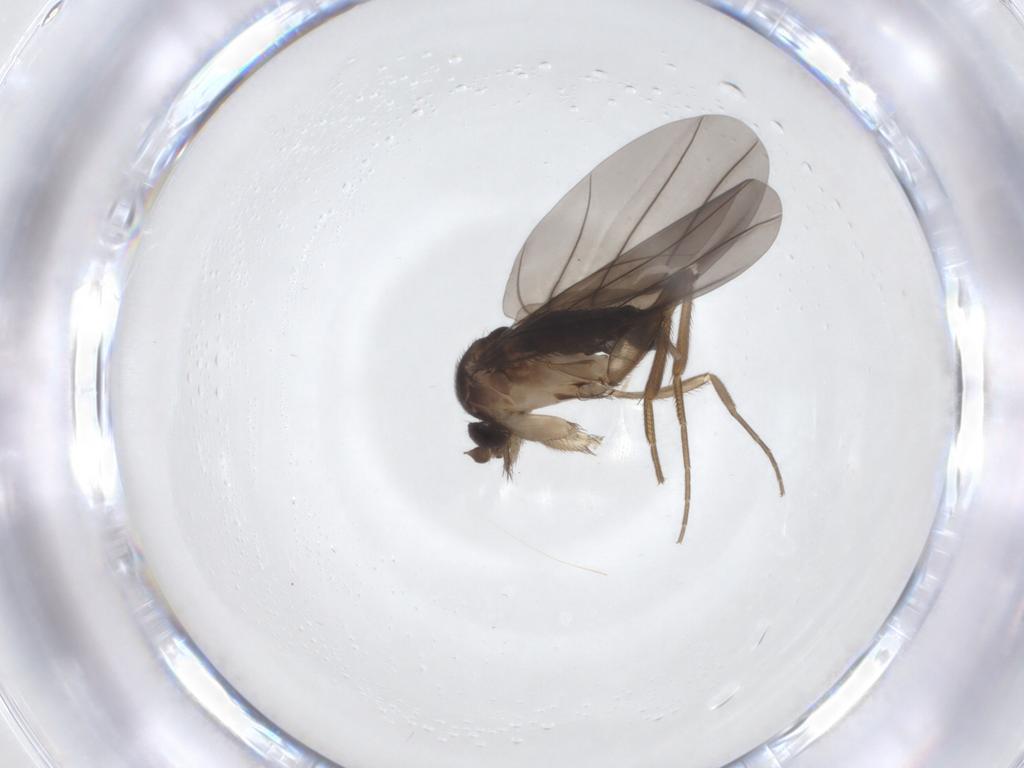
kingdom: Animalia
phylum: Arthropoda
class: Insecta
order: Diptera
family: Phoridae
